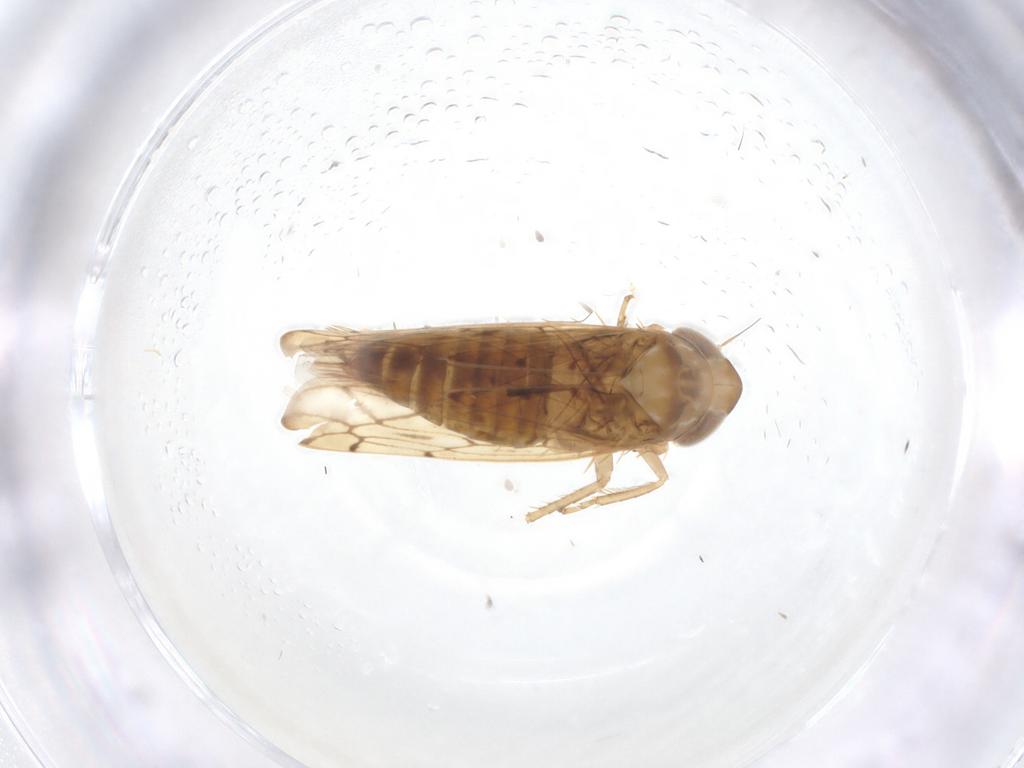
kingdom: Animalia
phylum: Arthropoda
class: Insecta
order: Hemiptera
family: Cicadellidae
